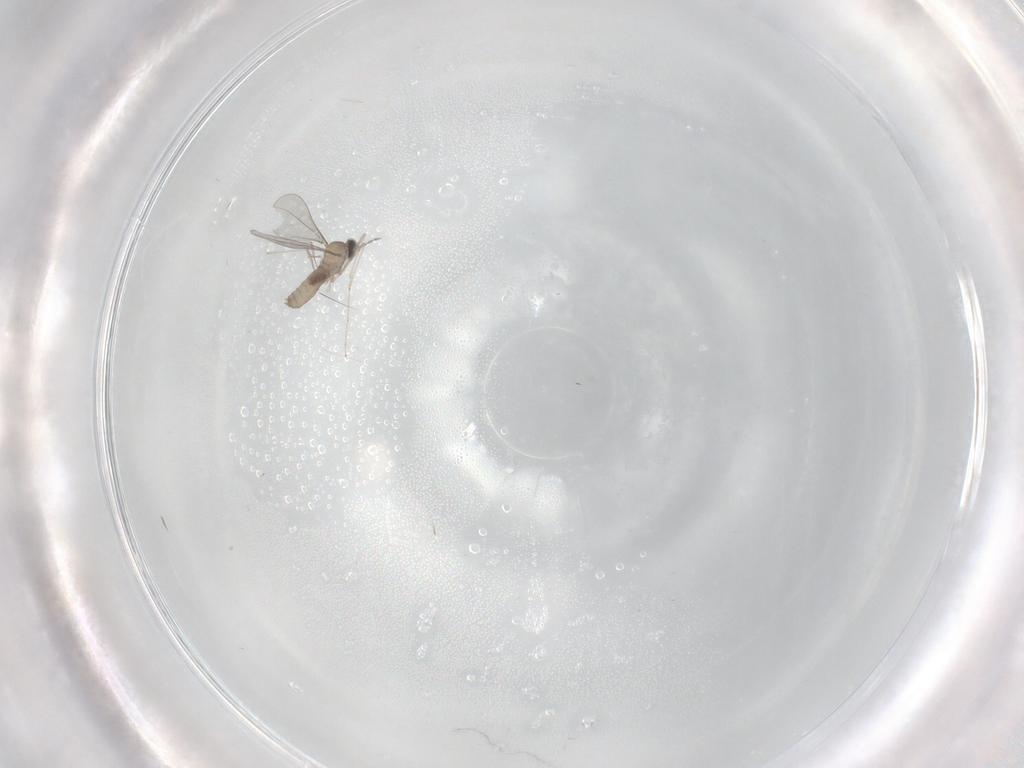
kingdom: Animalia
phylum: Arthropoda
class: Insecta
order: Diptera
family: Cecidomyiidae
